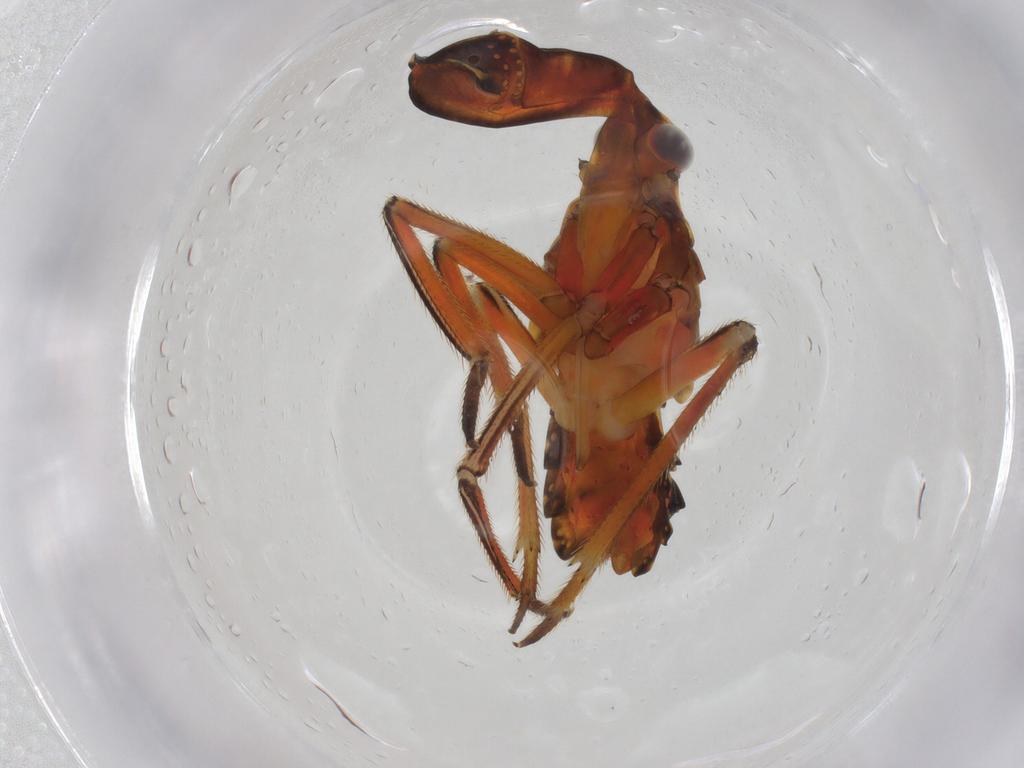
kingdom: Animalia
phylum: Arthropoda
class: Insecta
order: Hemiptera
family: Fulgoridae
